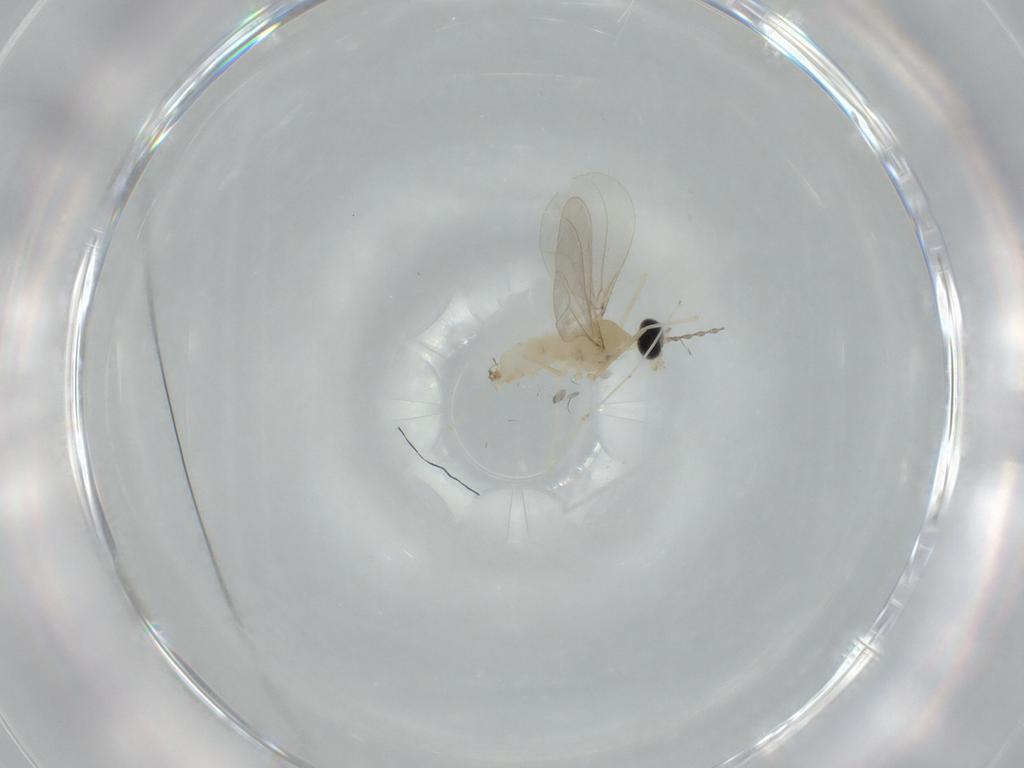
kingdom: Animalia
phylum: Arthropoda
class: Insecta
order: Diptera
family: Cecidomyiidae
